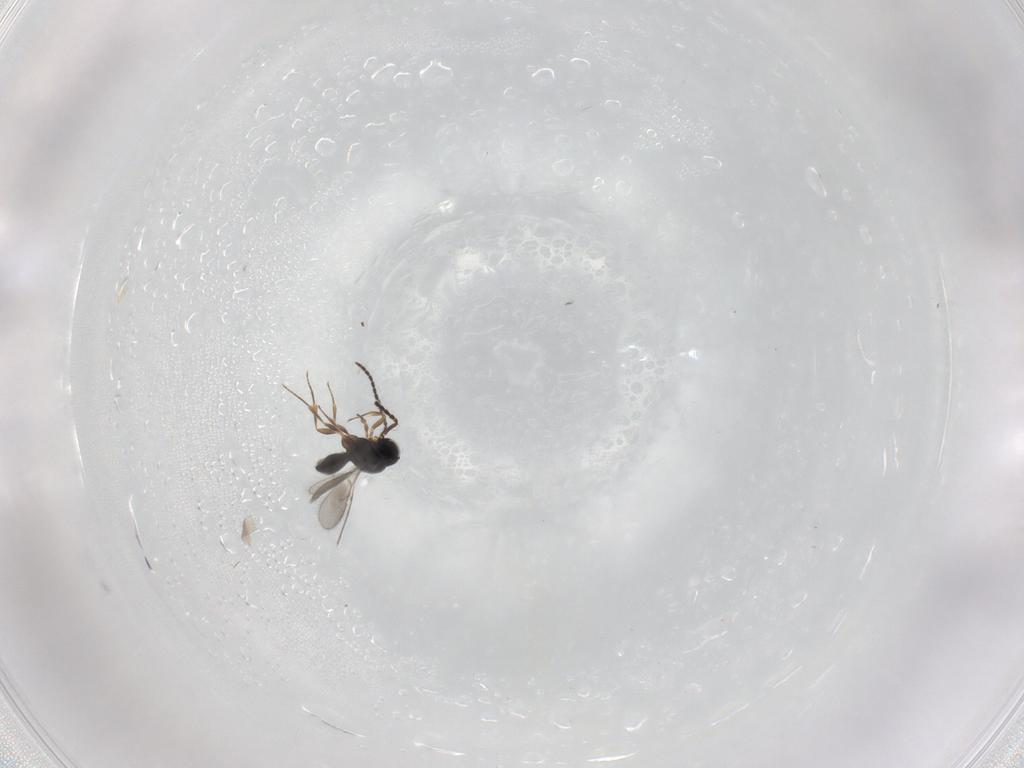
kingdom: Animalia
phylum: Arthropoda
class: Insecta
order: Hymenoptera
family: Scelionidae
